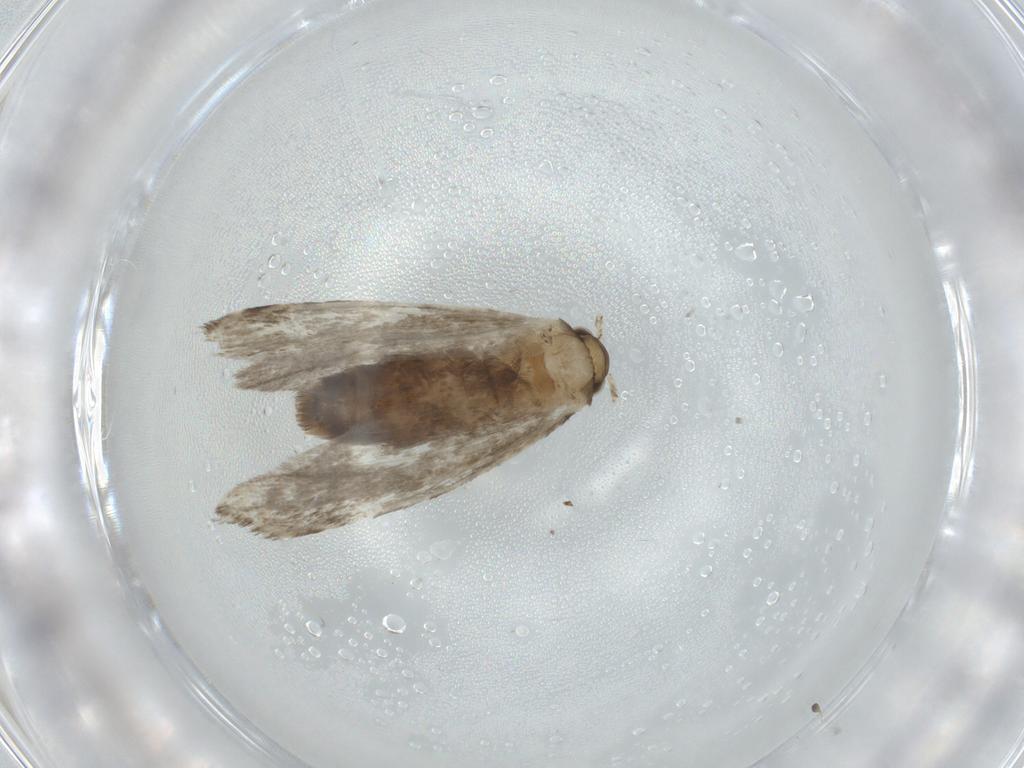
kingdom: Animalia
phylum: Arthropoda
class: Insecta
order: Lepidoptera
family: Tineidae
